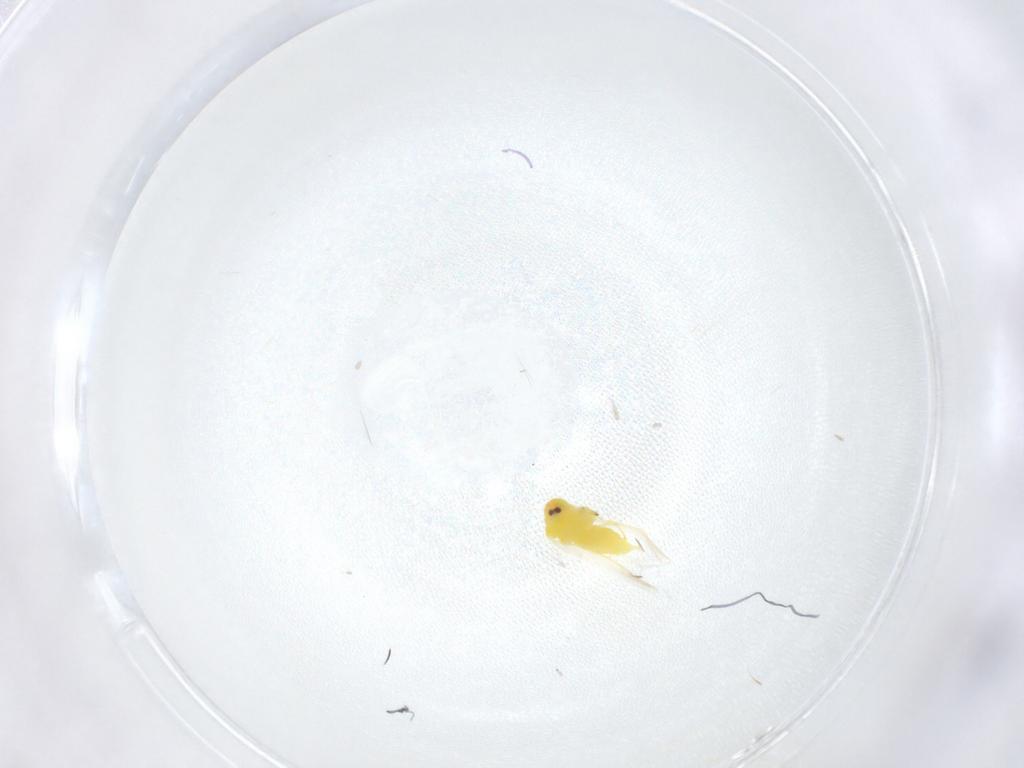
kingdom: Animalia
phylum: Arthropoda
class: Insecta
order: Hemiptera
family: Aleyrodidae
